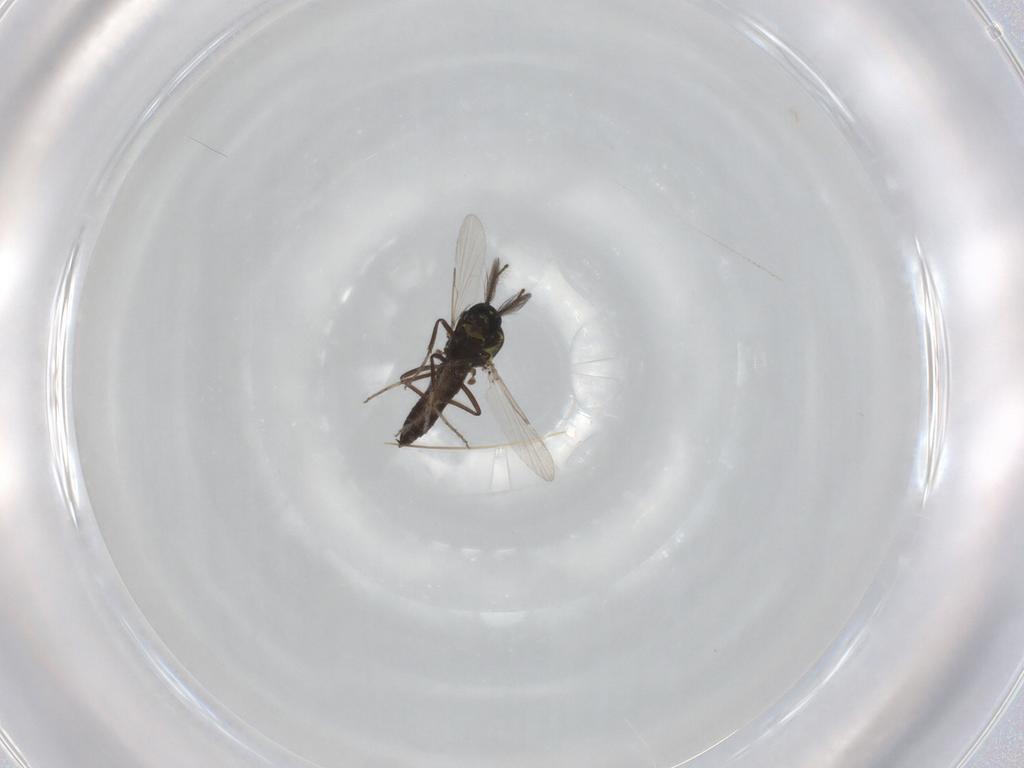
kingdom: Animalia
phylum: Arthropoda
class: Insecta
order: Diptera
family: Ceratopogonidae
